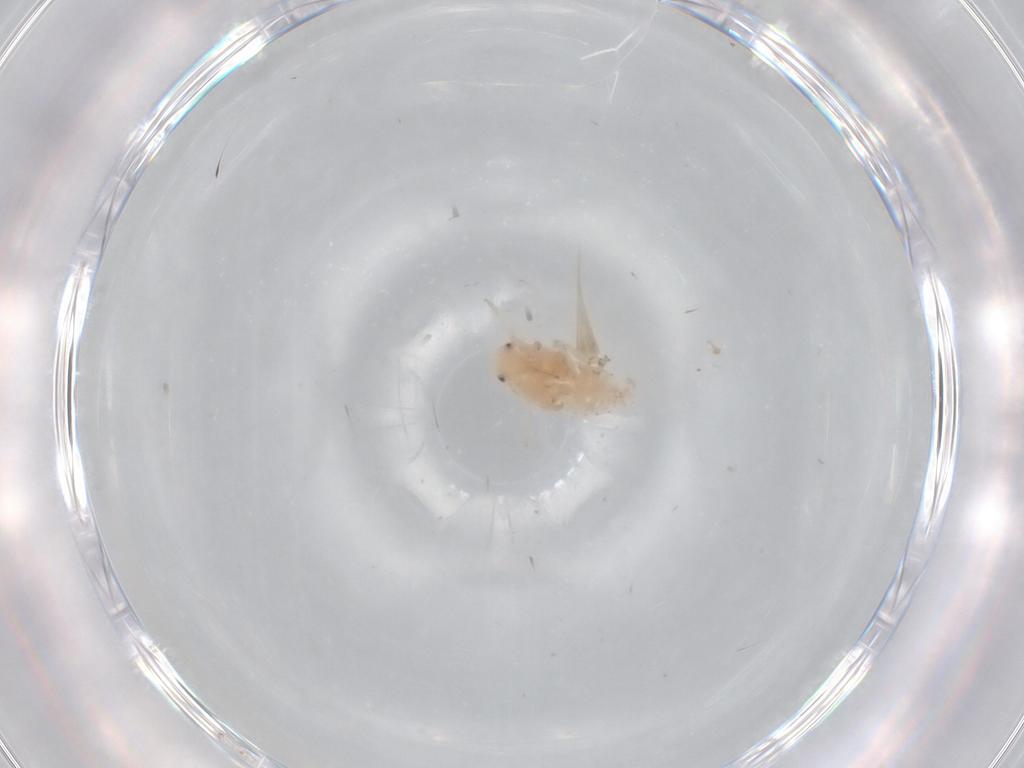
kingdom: Animalia
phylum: Arthropoda
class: Insecta
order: Hemiptera
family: Flatidae
